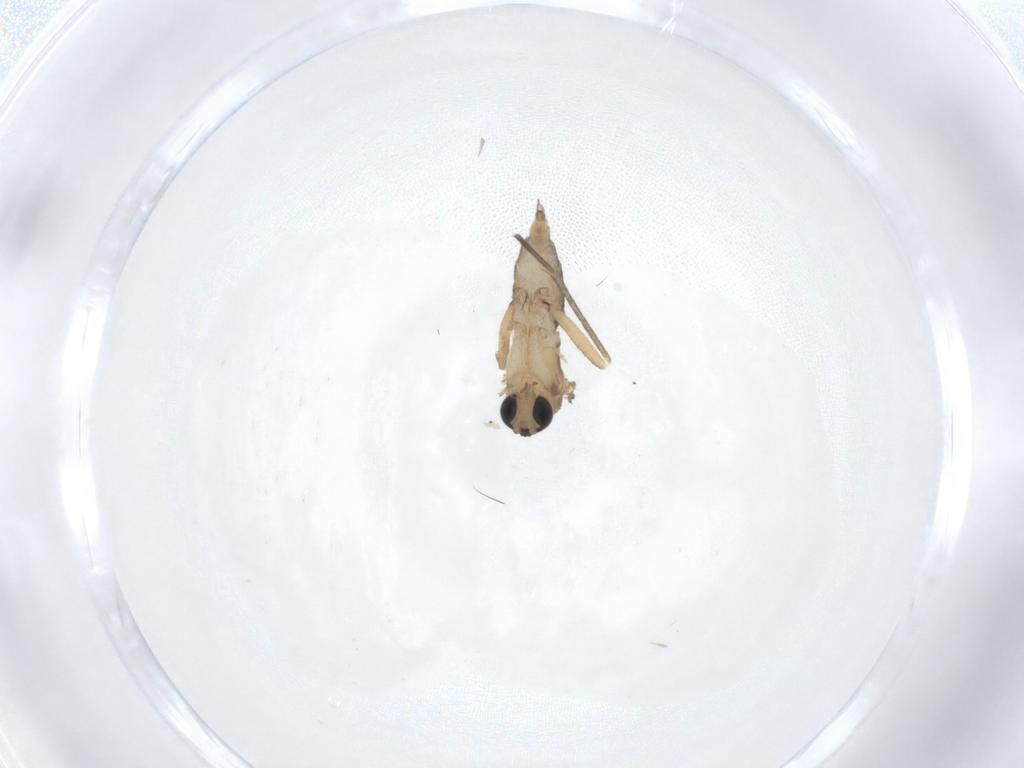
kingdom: Animalia
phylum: Arthropoda
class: Insecta
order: Diptera
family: Sciaridae
